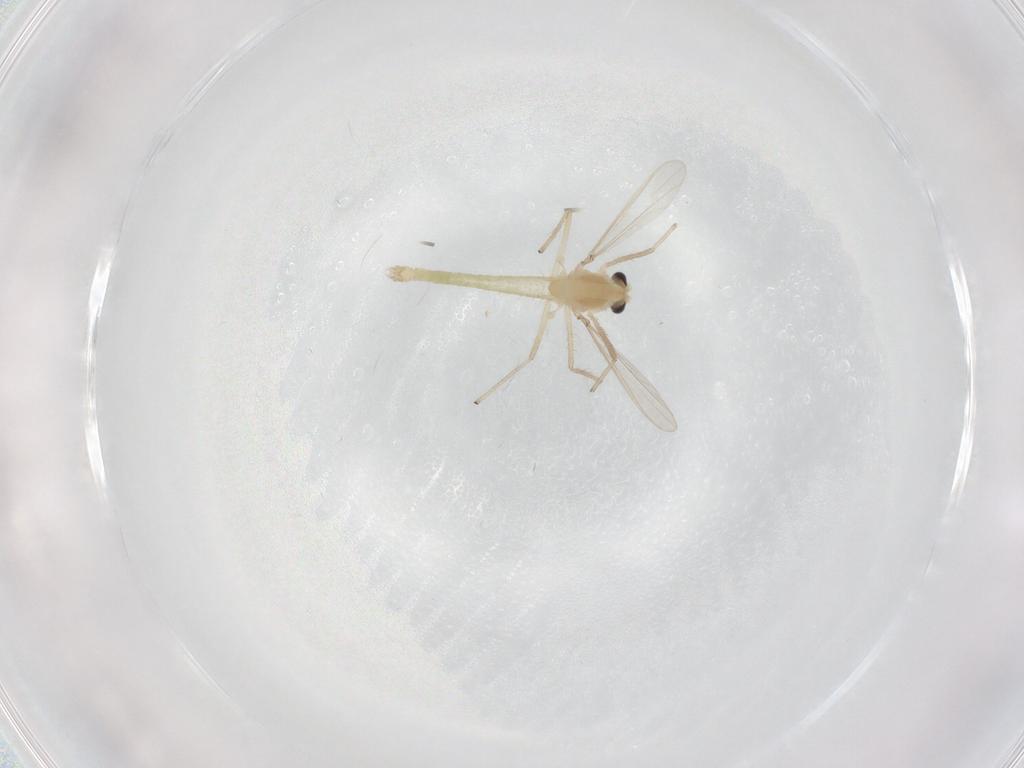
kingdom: Animalia
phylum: Arthropoda
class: Insecta
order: Diptera
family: Chironomidae
